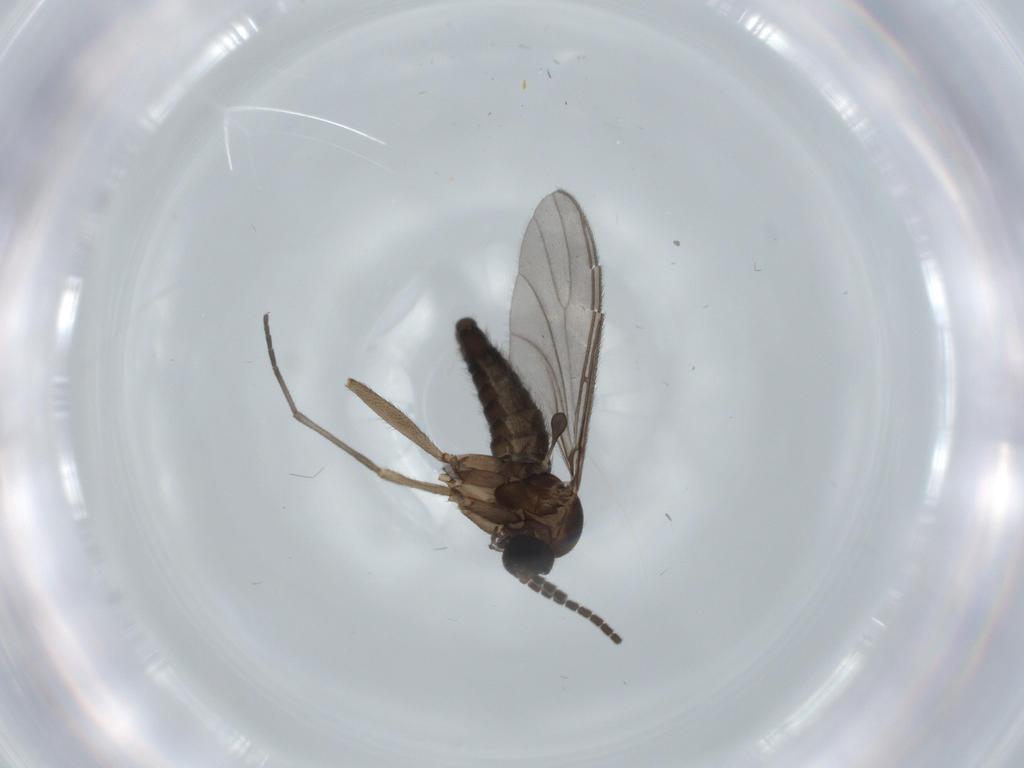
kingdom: Animalia
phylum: Arthropoda
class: Insecta
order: Diptera
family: Sciaridae
